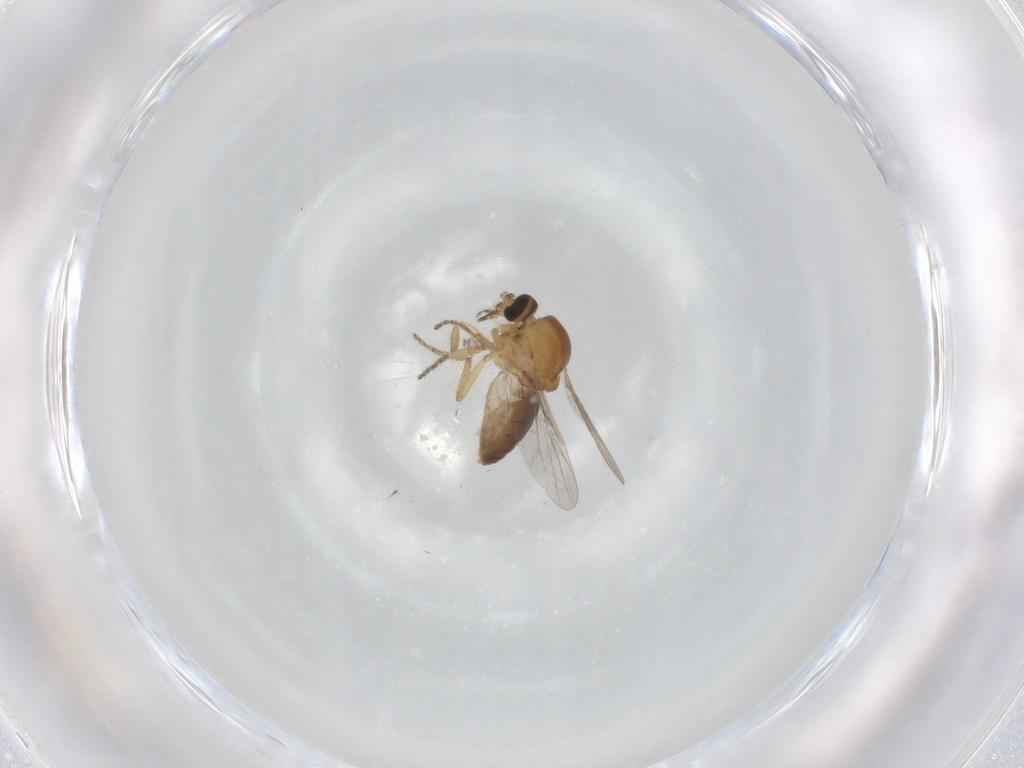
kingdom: Animalia
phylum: Arthropoda
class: Insecta
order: Diptera
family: Ceratopogonidae
